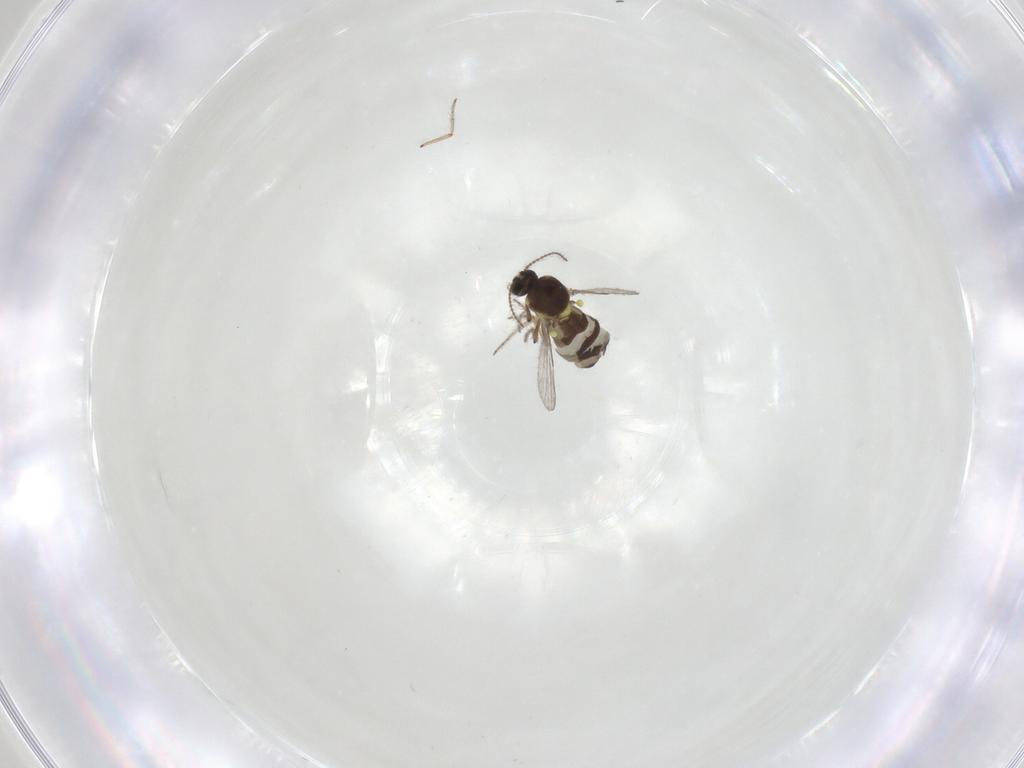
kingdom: Animalia
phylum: Arthropoda
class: Insecta
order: Diptera
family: Ceratopogonidae
